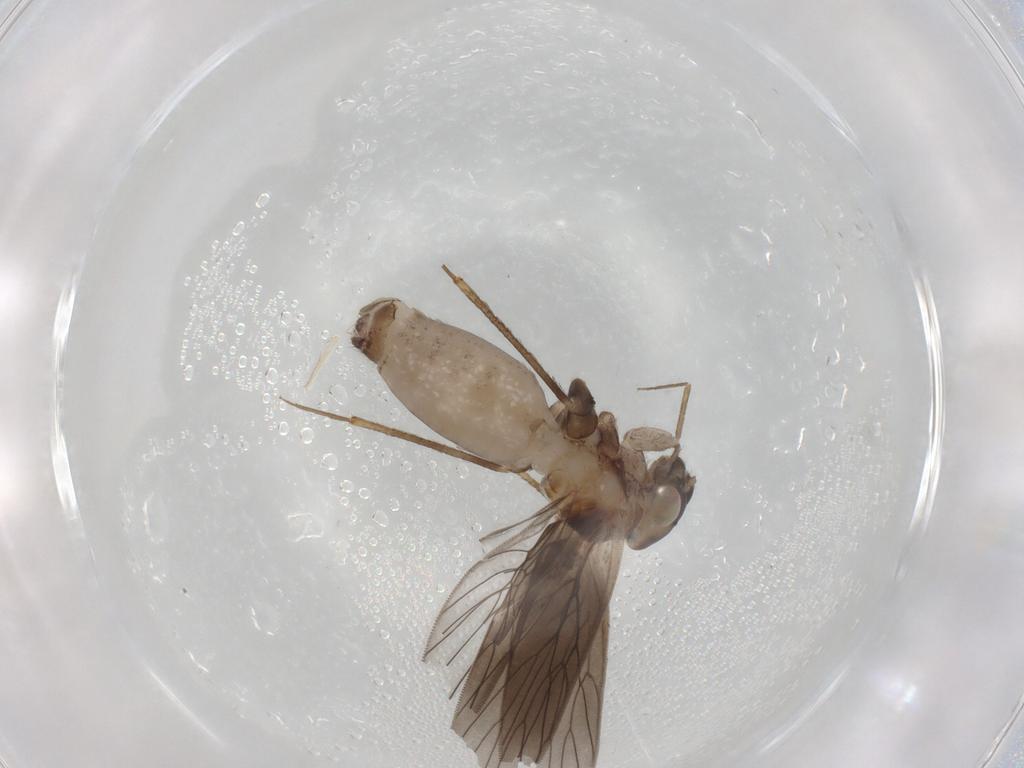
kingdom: Animalia
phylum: Arthropoda
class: Insecta
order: Psocodea
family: Lepidopsocidae
